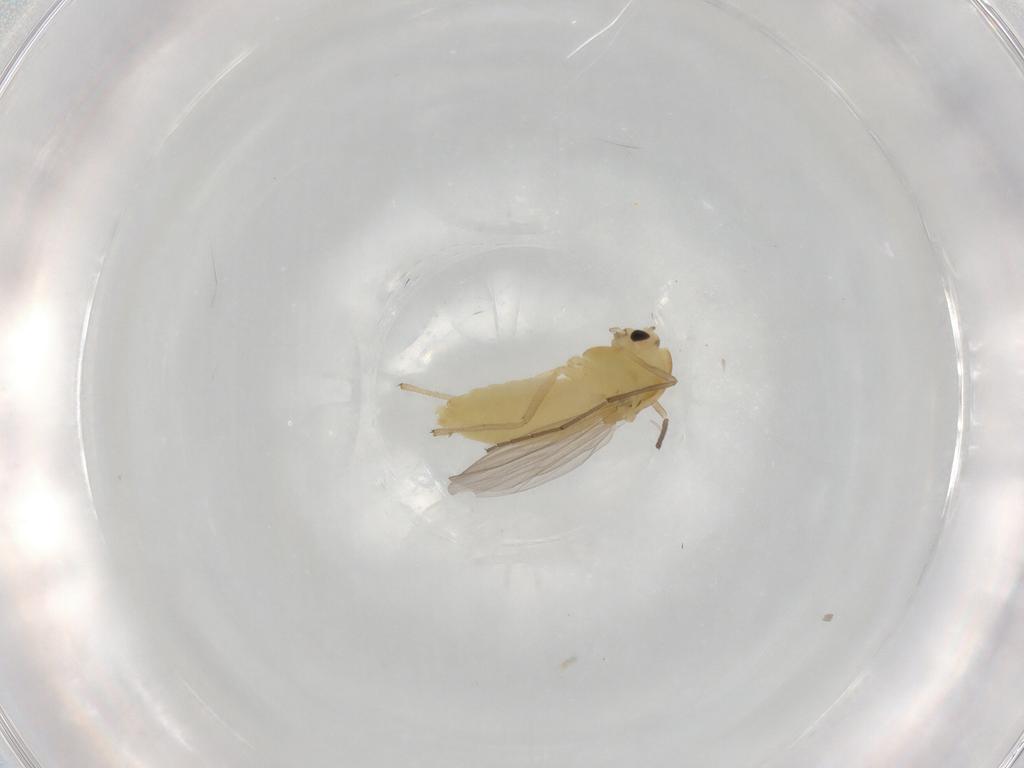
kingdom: Animalia
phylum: Arthropoda
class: Insecta
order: Diptera
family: Chironomidae
